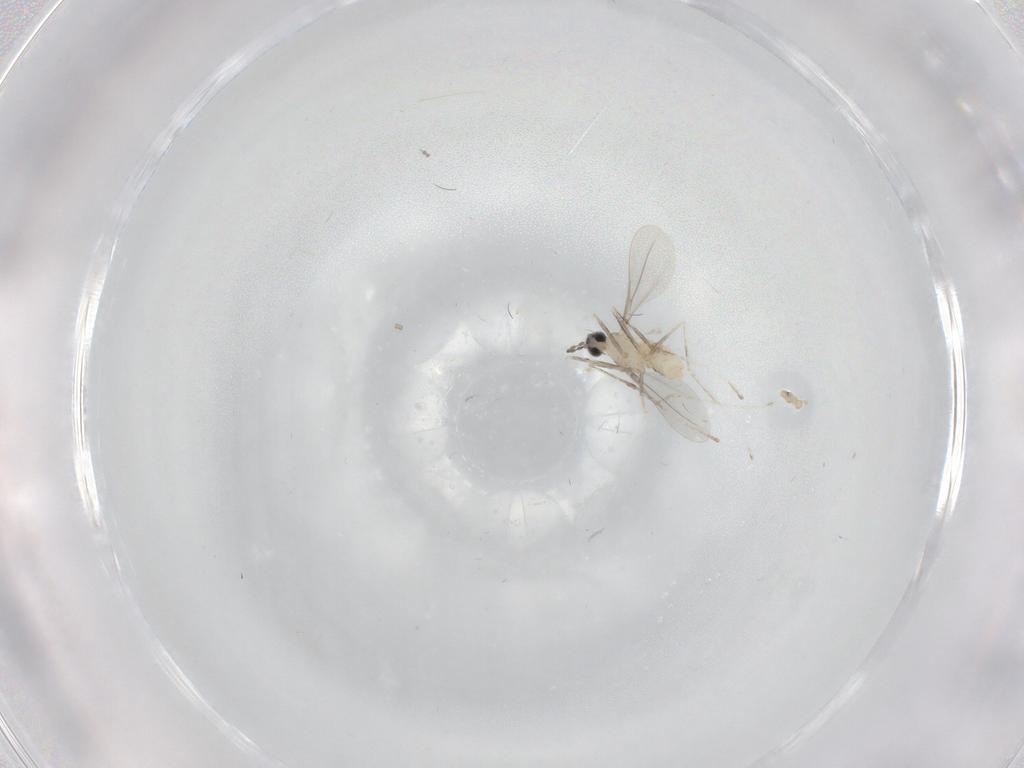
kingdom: Animalia
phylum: Arthropoda
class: Insecta
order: Diptera
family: Cecidomyiidae
